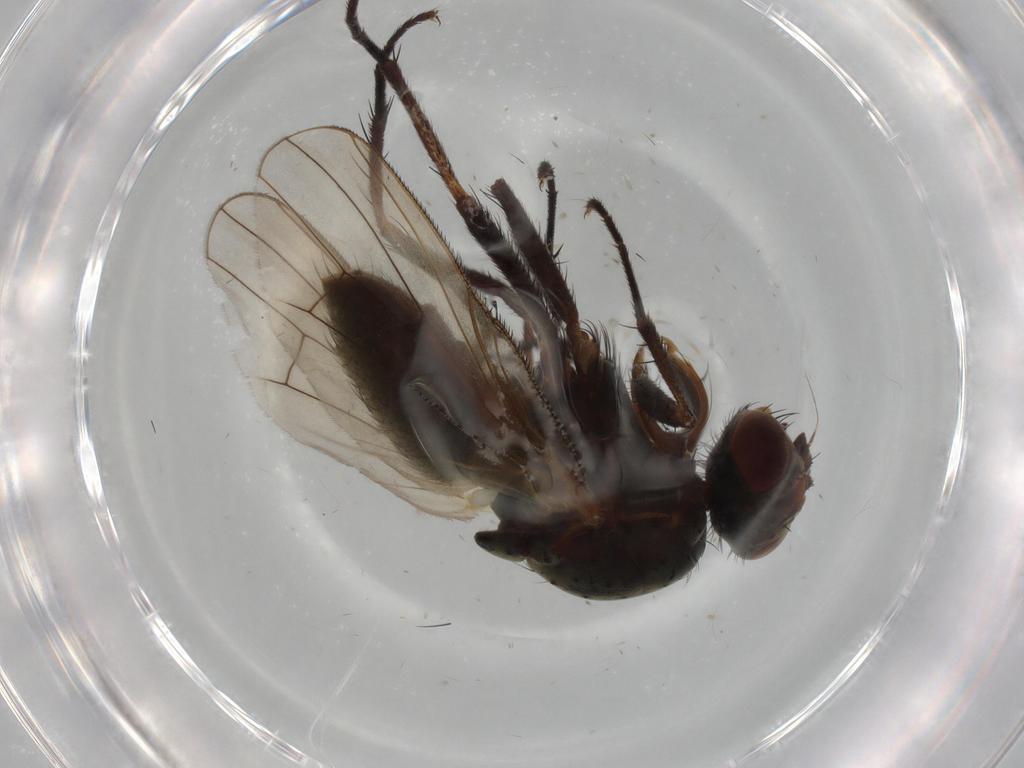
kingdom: Animalia
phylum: Arthropoda
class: Insecta
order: Diptera
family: Anthomyiidae
